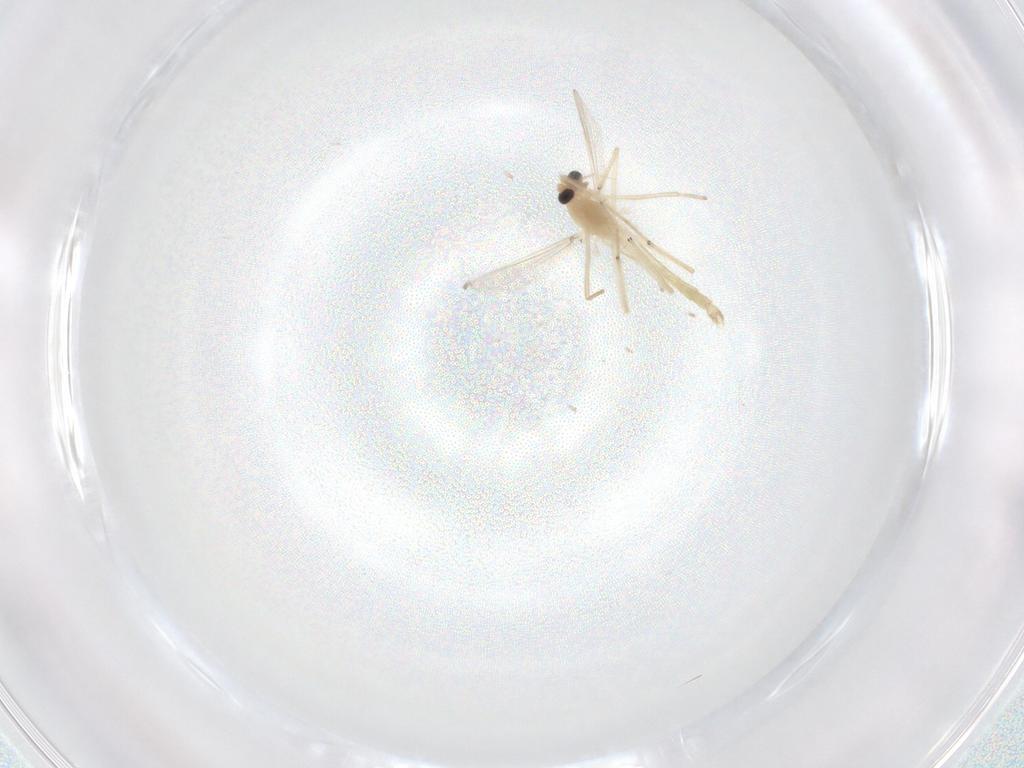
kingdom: Animalia
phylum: Arthropoda
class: Insecta
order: Diptera
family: Chironomidae
